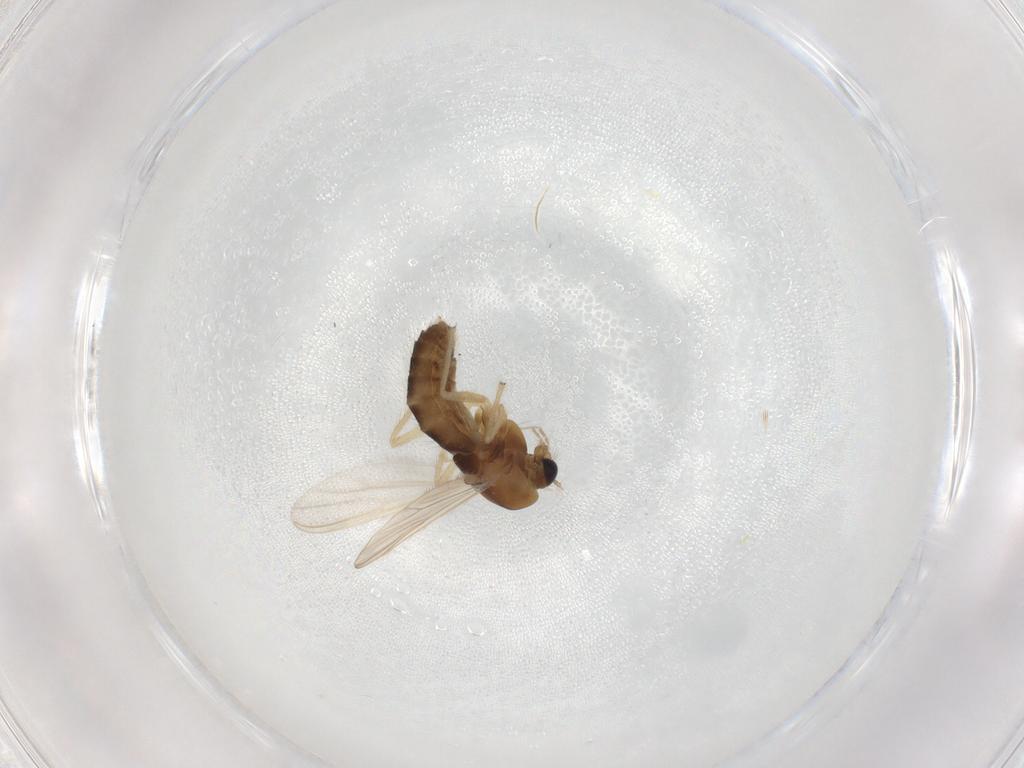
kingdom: Animalia
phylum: Arthropoda
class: Insecta
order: Diptera
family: Chironomidae
